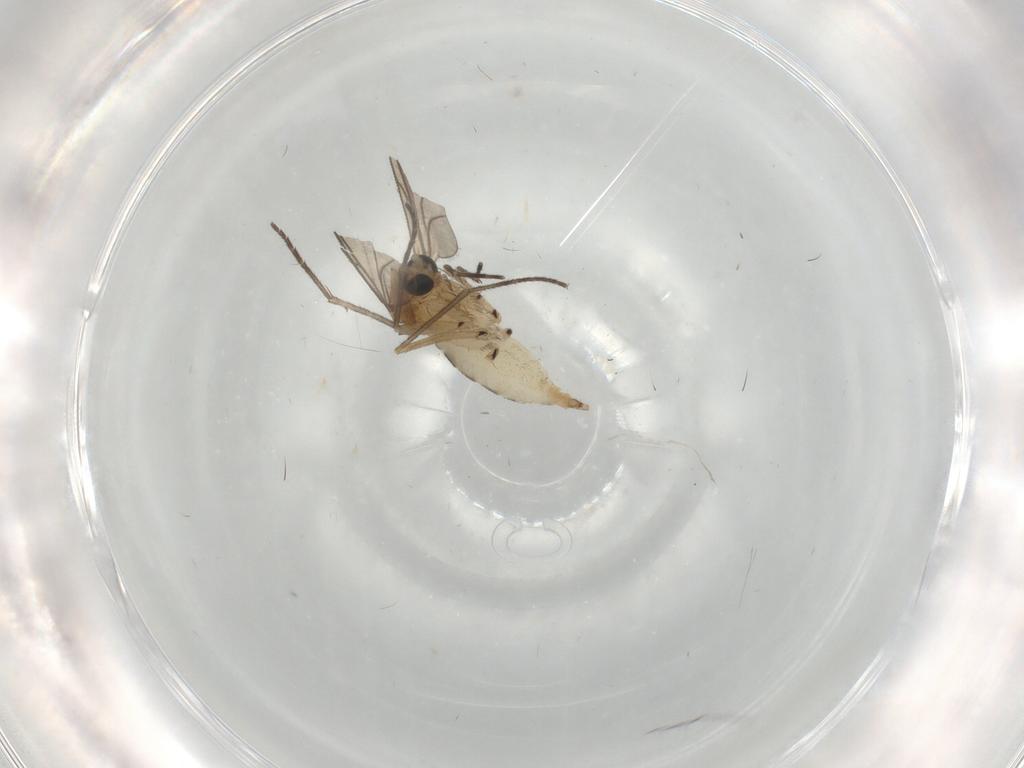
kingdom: Animalia
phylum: Arthropoda
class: Insecta
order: Diptera
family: Sciaridae
